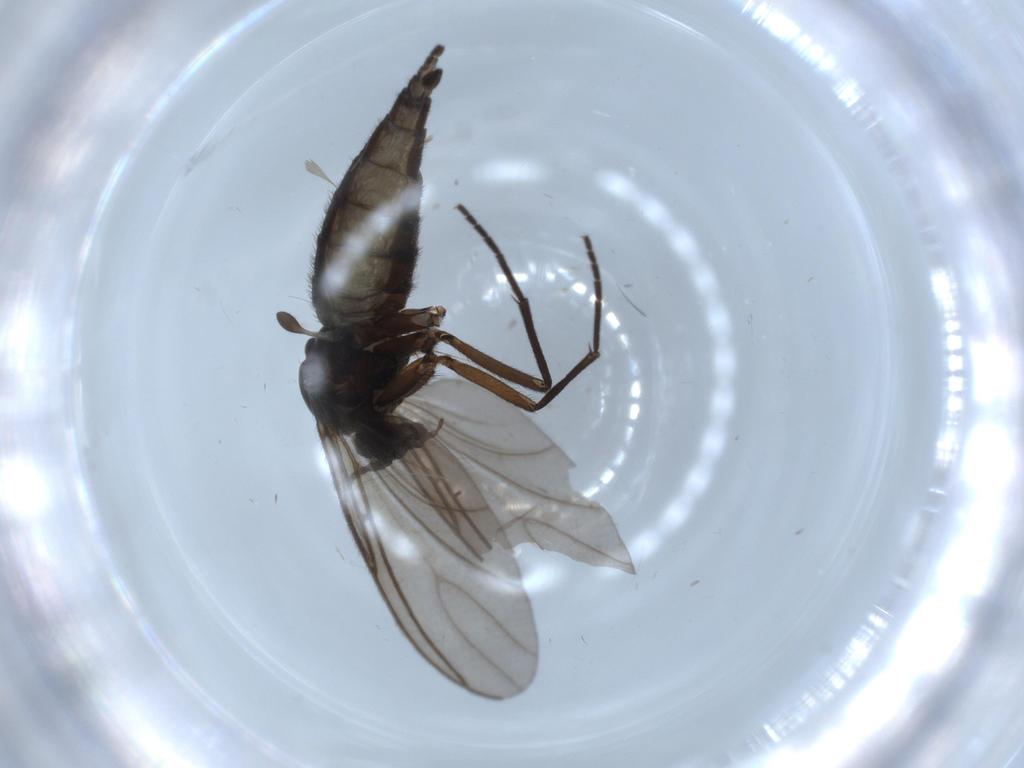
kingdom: Animalia
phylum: Arthropoda
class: Insecta
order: Diptera
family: Sciaridae
